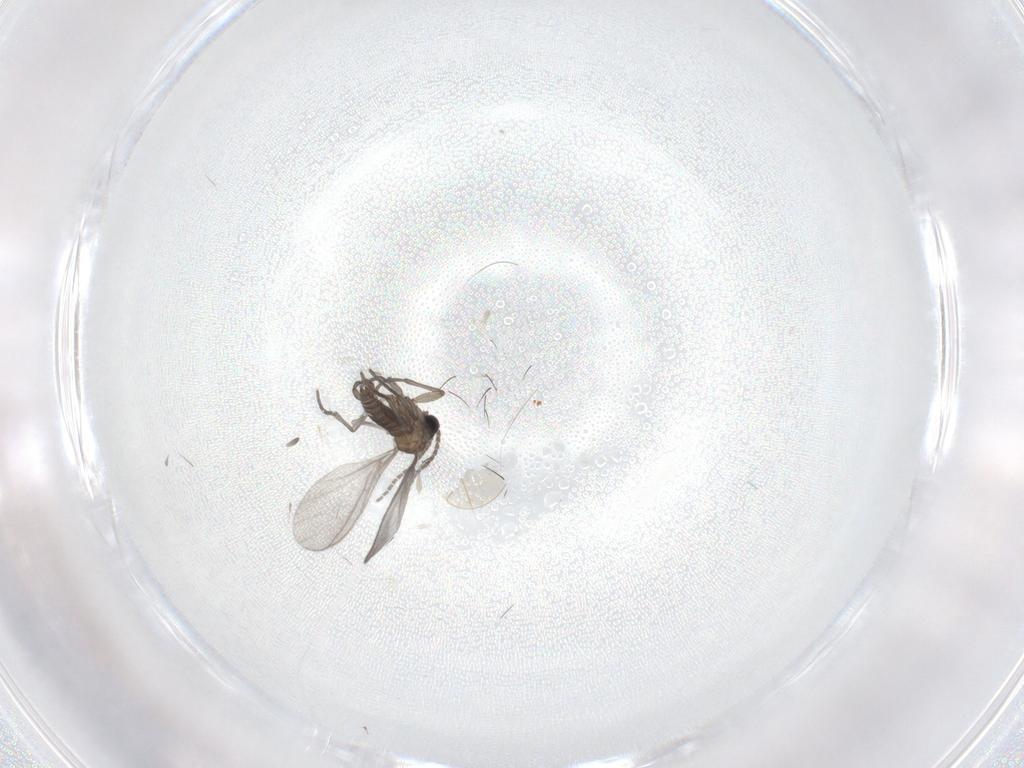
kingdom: Animalia
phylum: Arthropoda
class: Insecta
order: Diptera
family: Sciaridae
